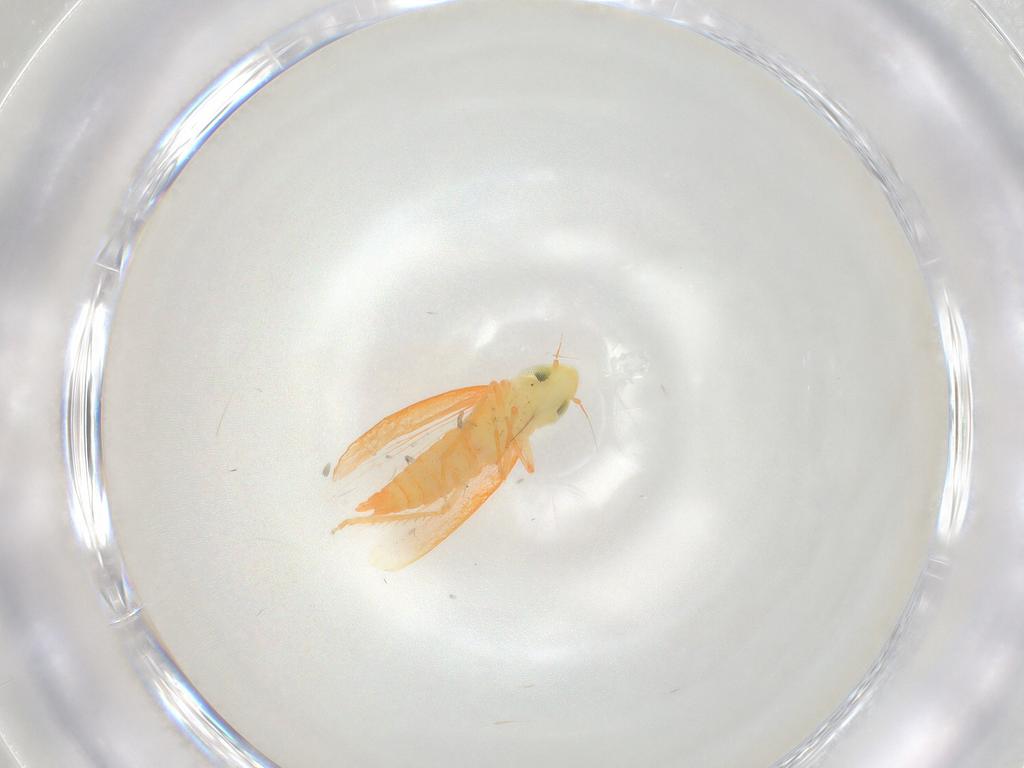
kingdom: Animalia
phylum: Arthropoda
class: Insecta
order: Hemiptera
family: Cicadellidae
